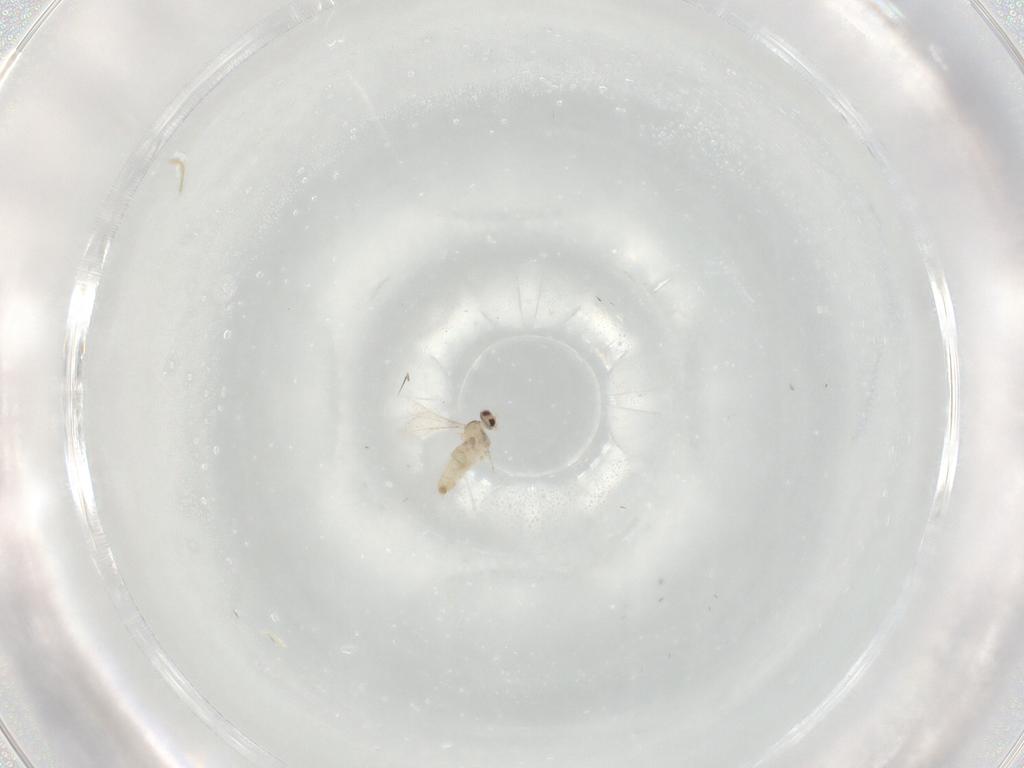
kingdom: Animalia
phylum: Arthropoda
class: Insecta
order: Diptera
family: Cecidomyiidae
